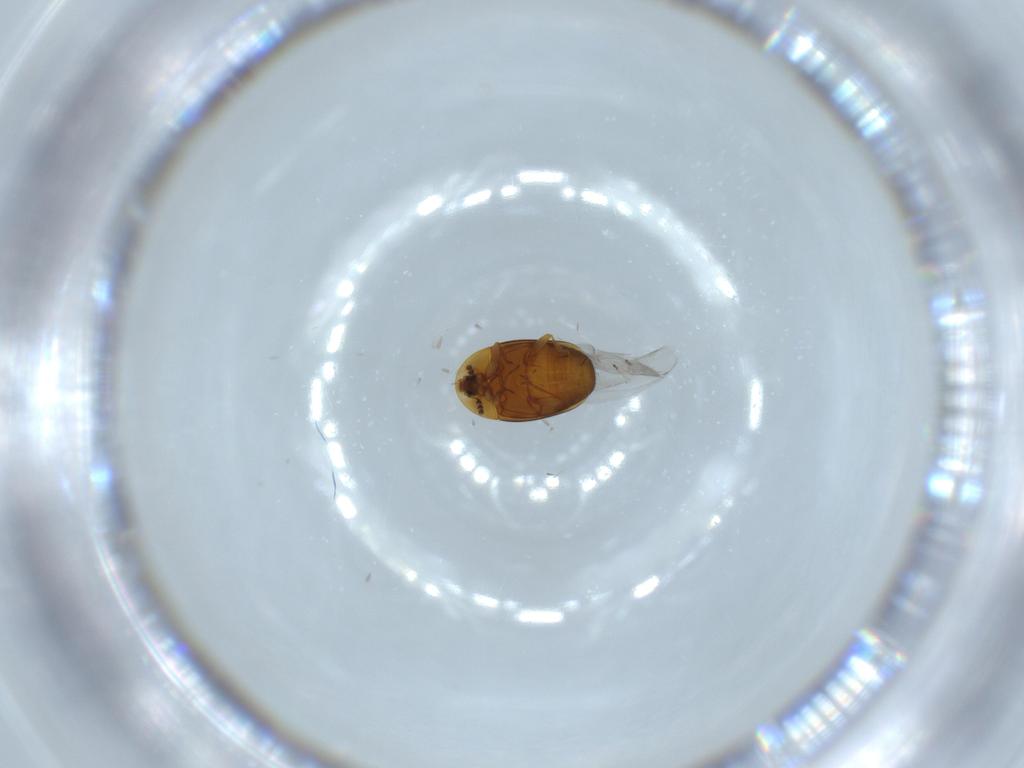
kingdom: Animalia
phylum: Arthropoda
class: Insecta
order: Coleoptera
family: Corylophidae
